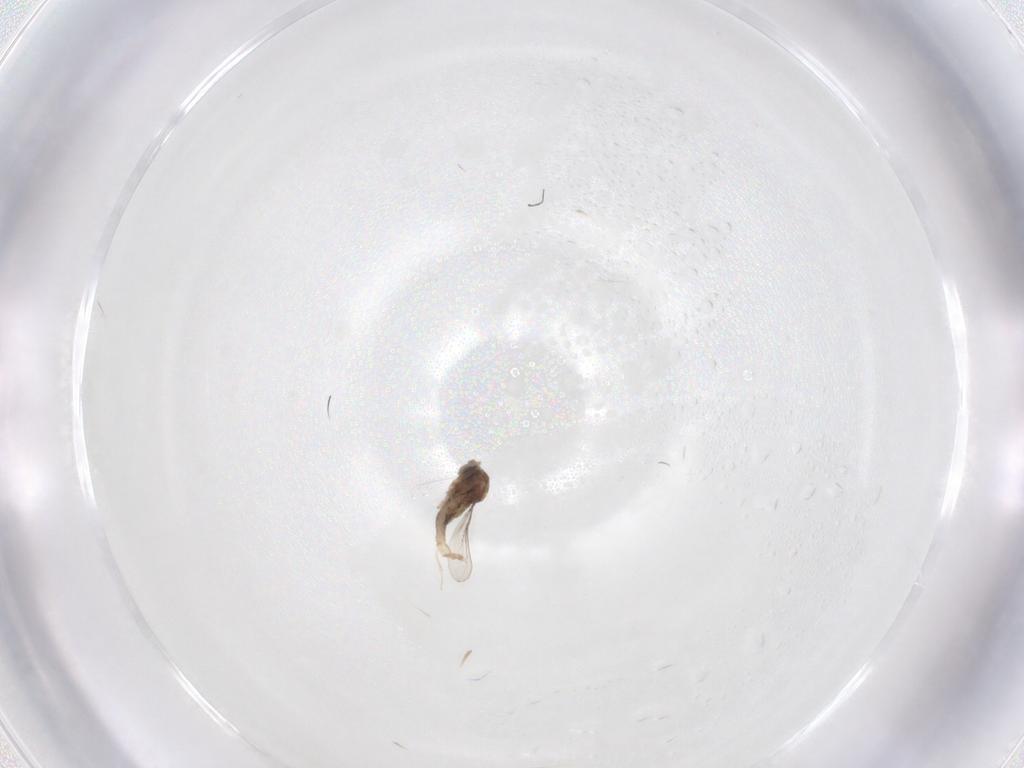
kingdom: Animalia
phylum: Arthropoda
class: Insecta
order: Diptera
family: Cecidomyiidae
